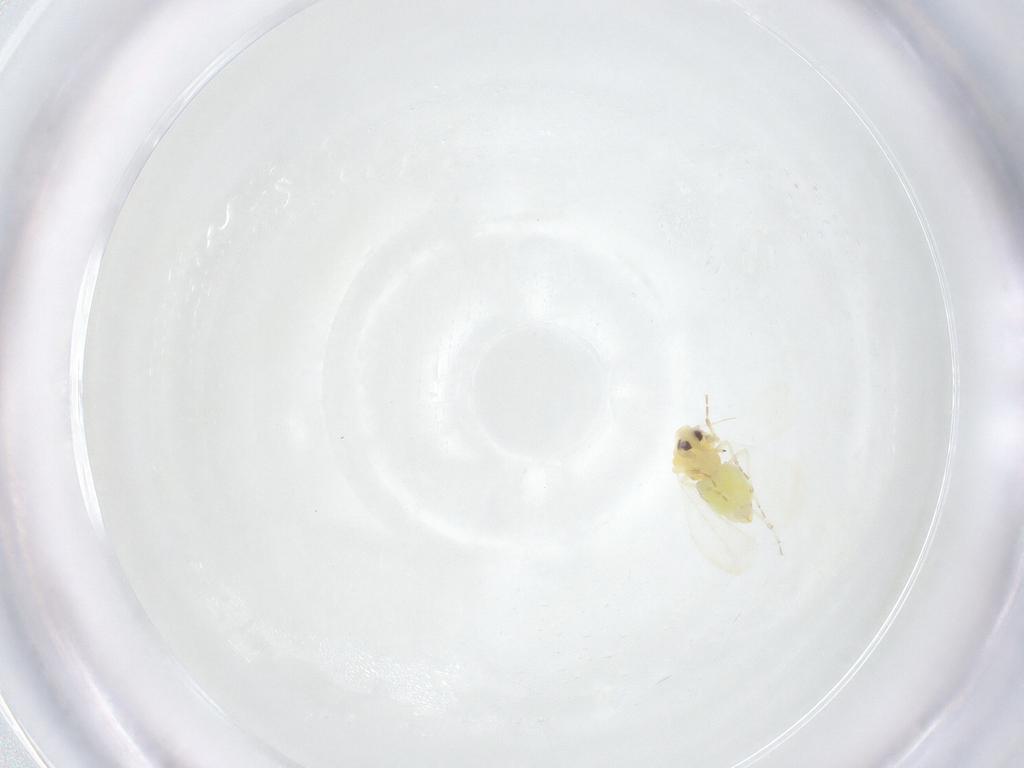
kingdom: Animalia
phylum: Arthropoda
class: Insecta
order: Hemiptera
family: Aleyrodidae
